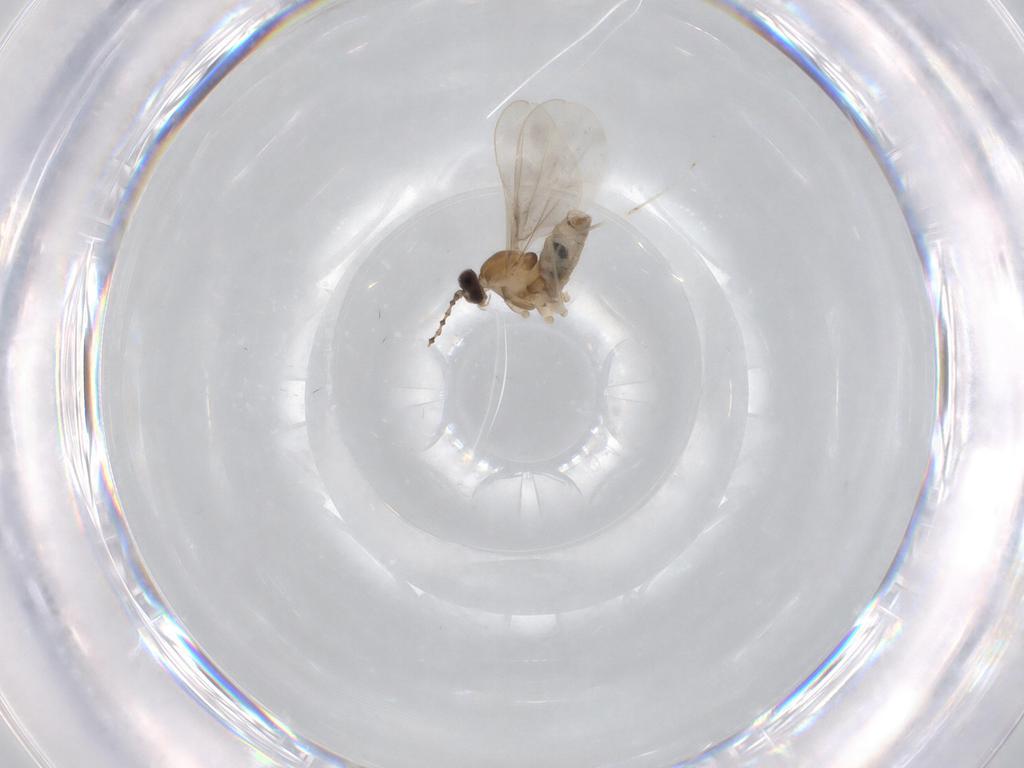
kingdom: Animalia
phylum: Arthropoda
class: Insecta
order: Diptera
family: Cecidomyiidae
